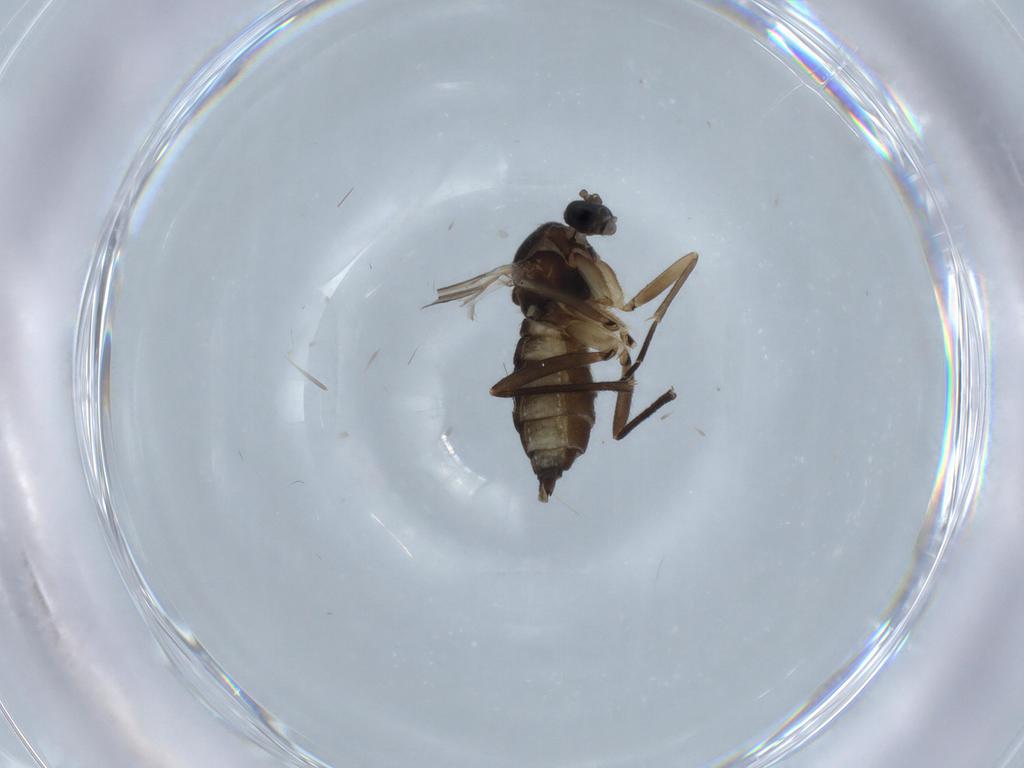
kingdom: Animalia
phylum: Arthropoda
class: Insecta
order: Diptera
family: Sciaridae
